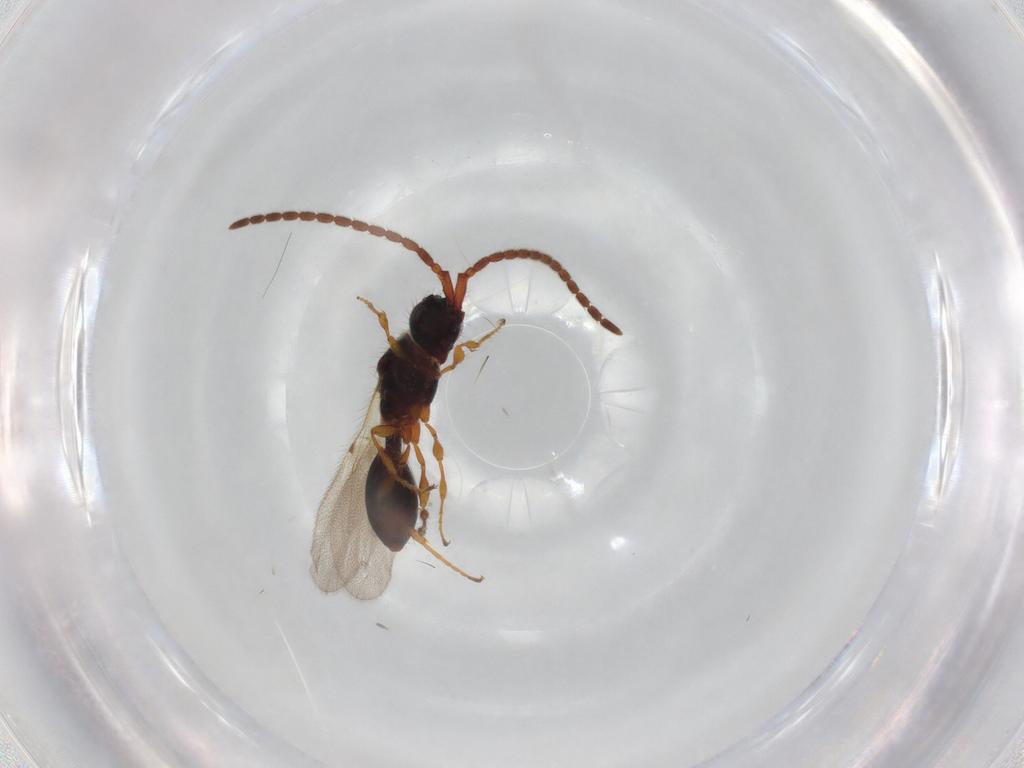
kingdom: Animalia
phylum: Arthropoda
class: Insecta
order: Hymenoptera
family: Diapriidae
